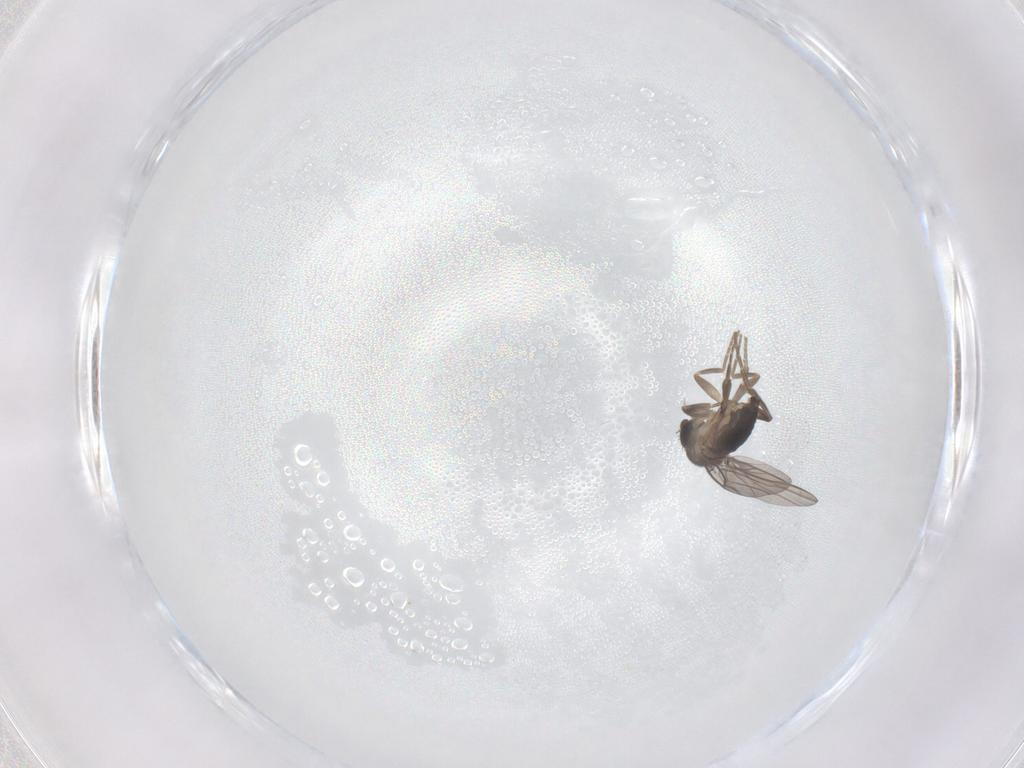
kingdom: Animalia
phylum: Arthropoda
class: Insecta
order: Diptera
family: Phoridae
